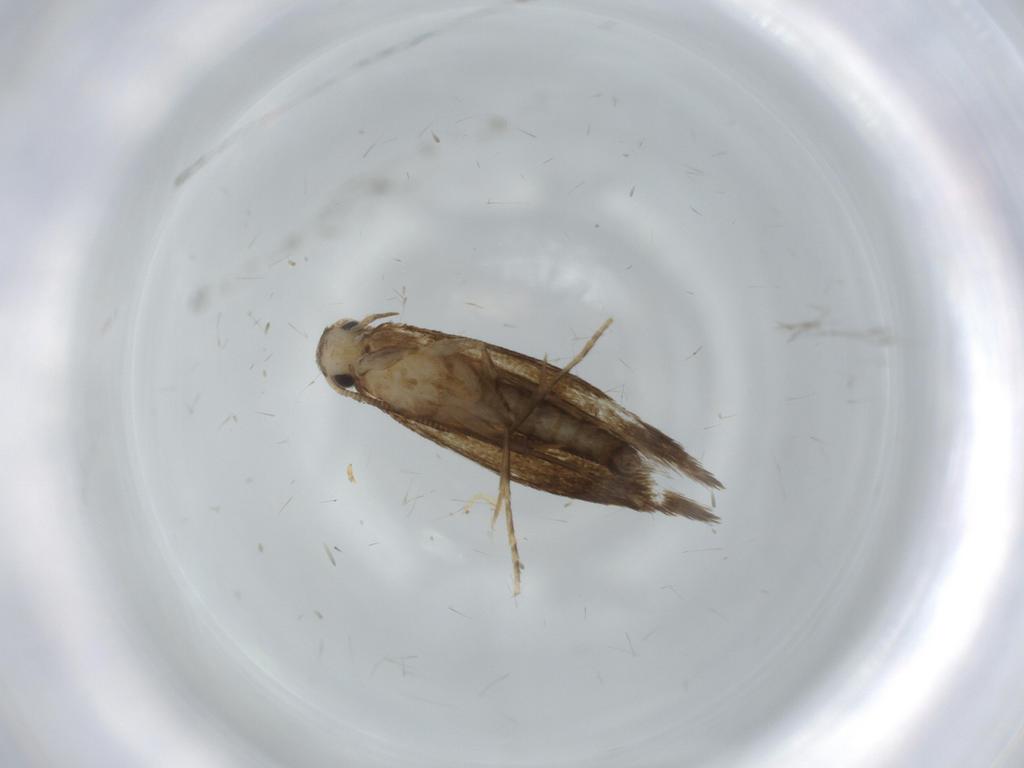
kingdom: Animalia
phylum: Arthropoda
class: Insecta
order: Lepidoptera
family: Tineidae
